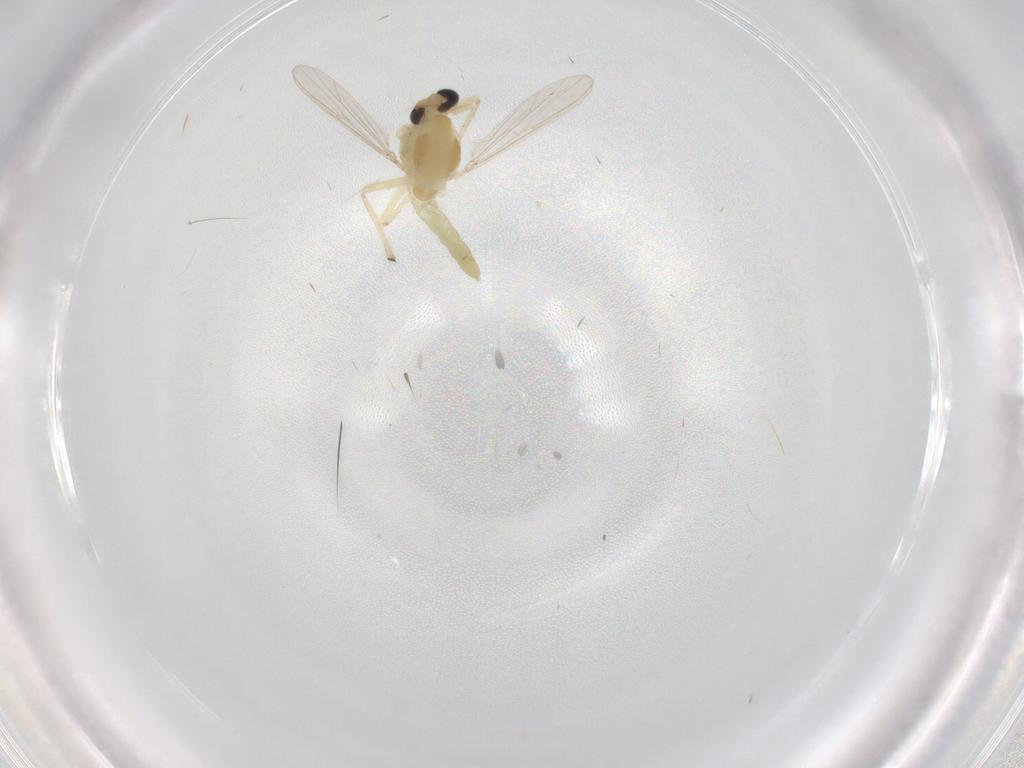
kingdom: Animalia
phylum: Arthropoda
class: Insecta
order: Diptera
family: Chironomidae
